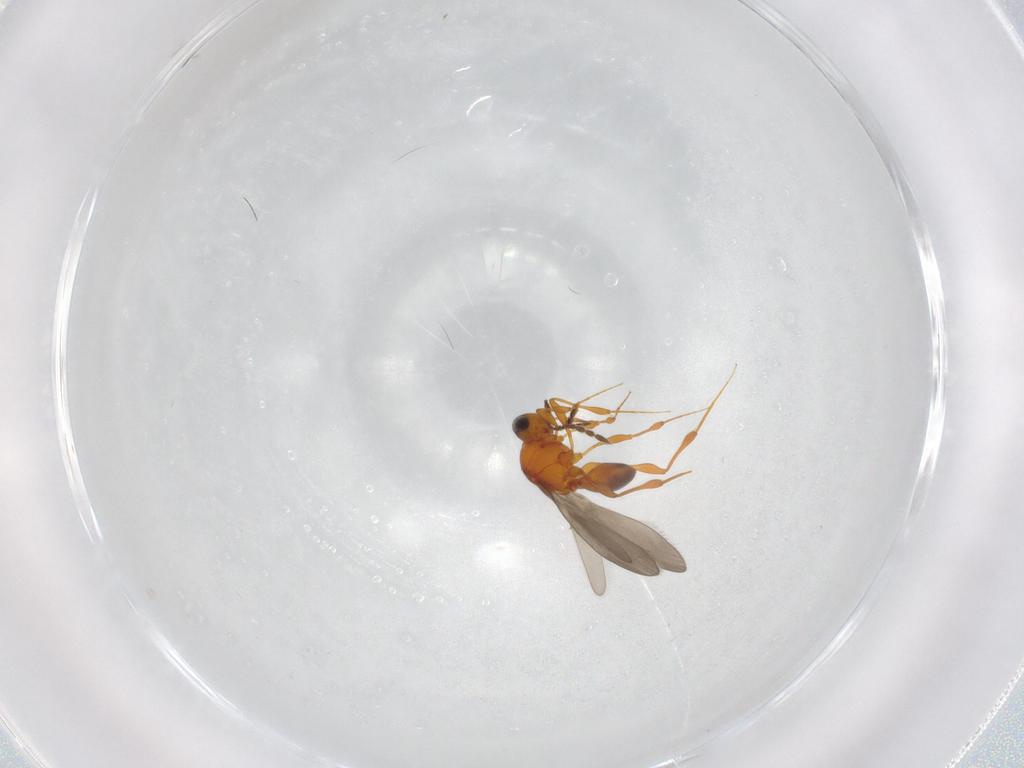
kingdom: Animalia
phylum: Arthropoda
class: Insecta
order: Hymenoptera
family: Platygastridae
